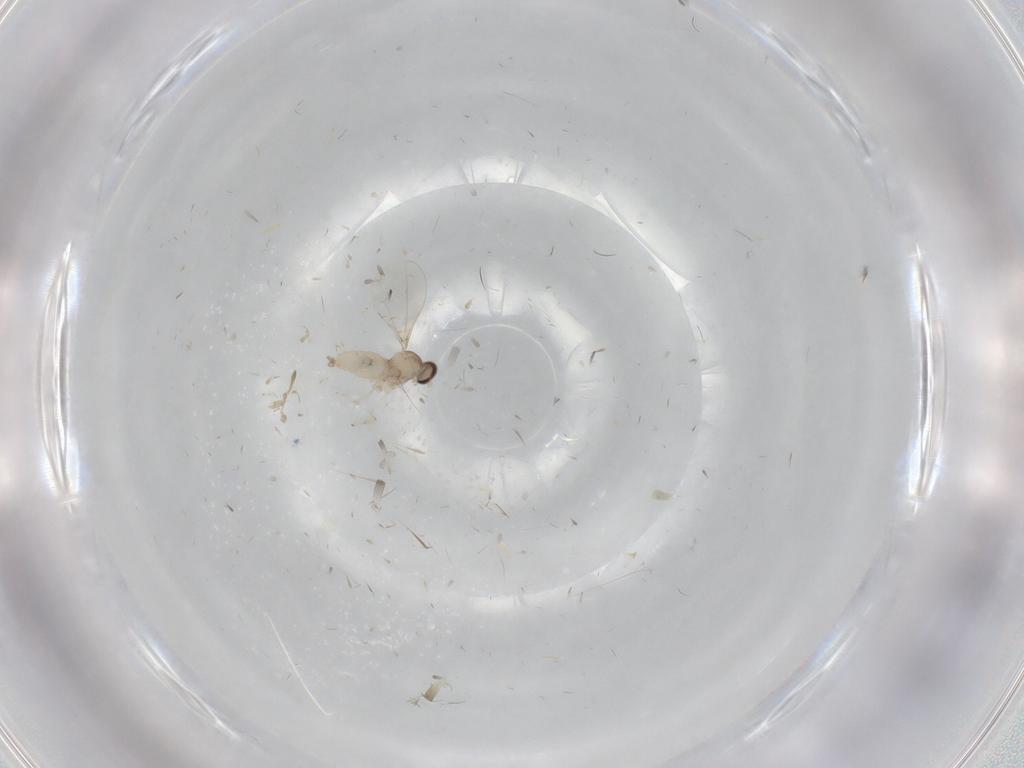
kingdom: Animalia
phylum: Arthropoda
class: Insecta
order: Diptera
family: Cecidomyiidae
